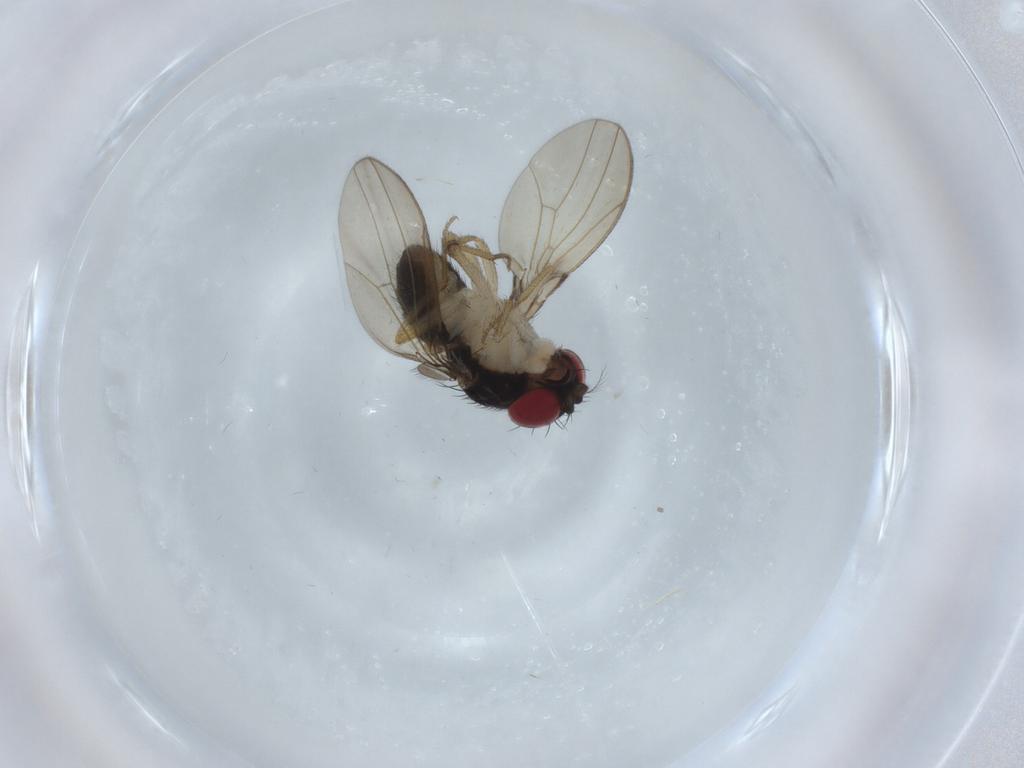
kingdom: Animalia
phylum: Arthropoda
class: Insecta
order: Diptera
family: Drosophilidae
